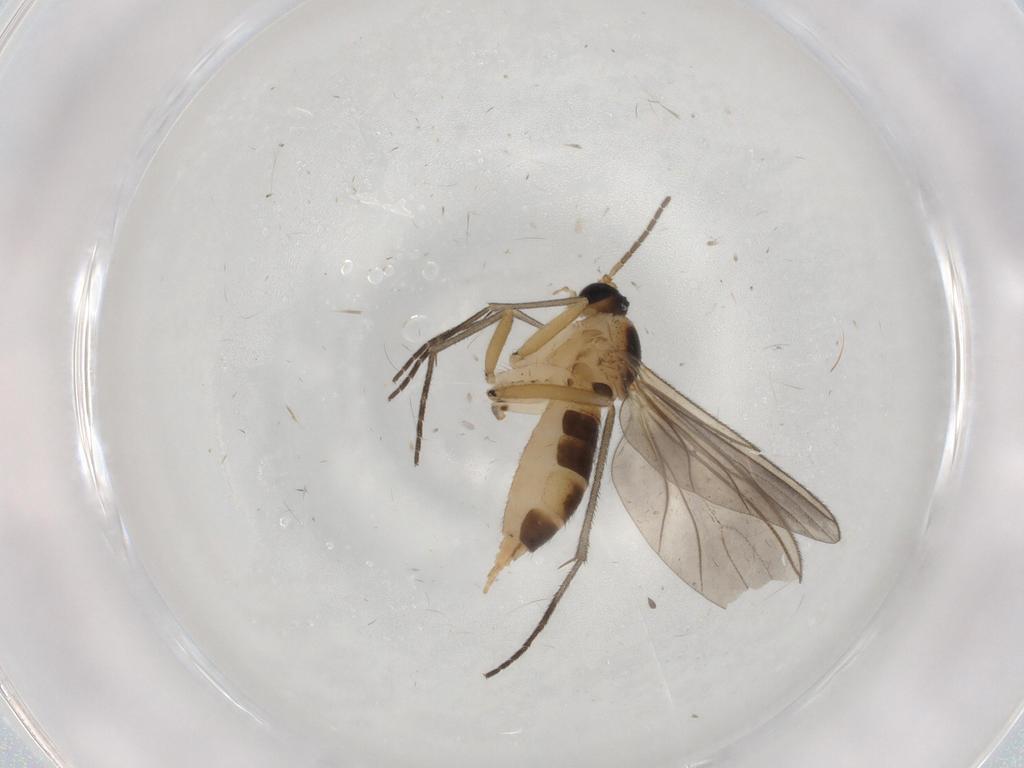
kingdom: Animalia
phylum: Arthropoda
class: Insecta
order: Diptera
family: Sciaridae
